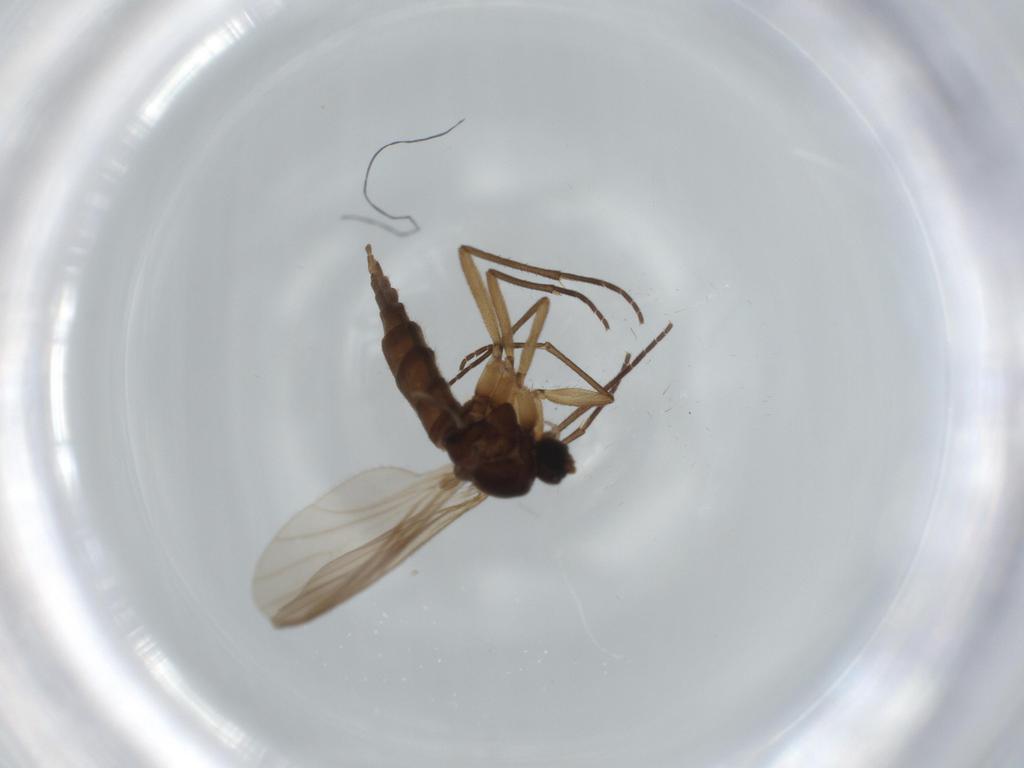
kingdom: Animalia
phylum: Arthropoda
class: Insecta
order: Diptera
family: Sciaridae
